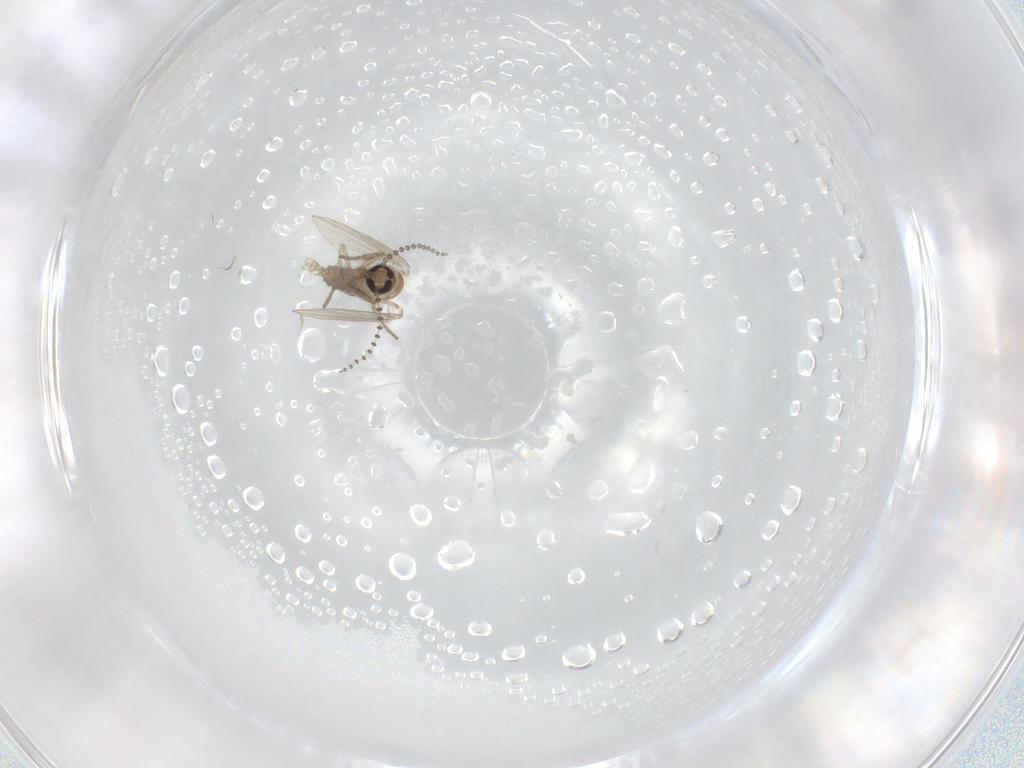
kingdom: Animalia
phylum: Arthropoda
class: Insecta
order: Diptera
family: Psychodidae
